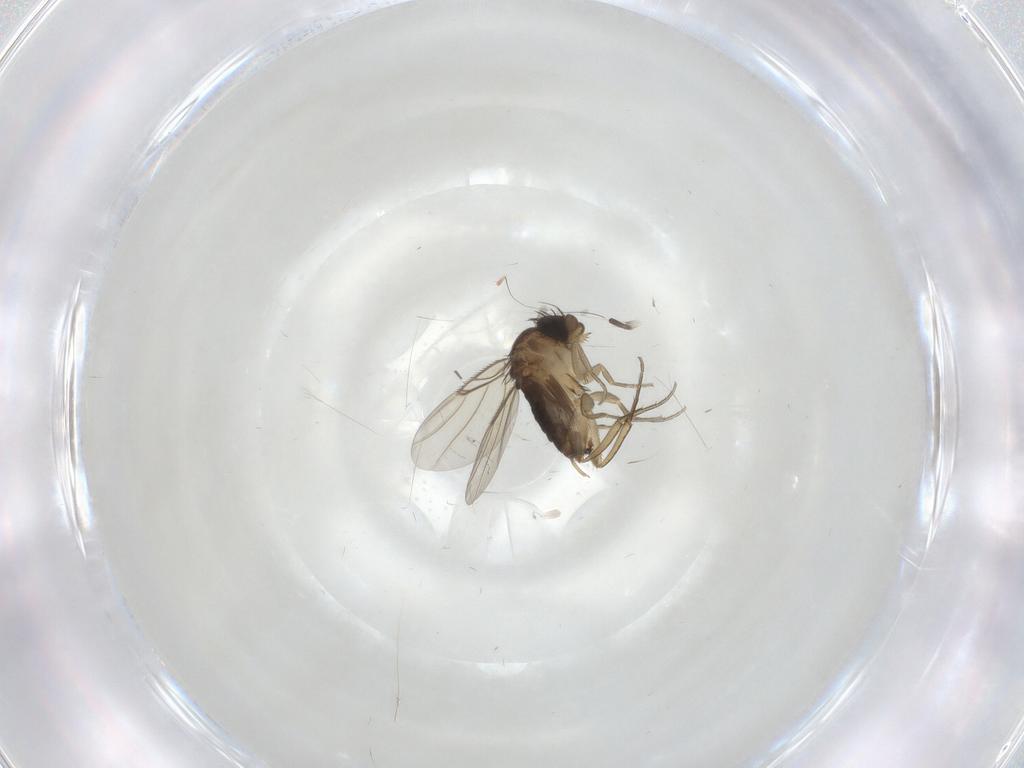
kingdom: Animalia
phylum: Arthropoda
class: Insecta
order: Diptera
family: Phoridae
